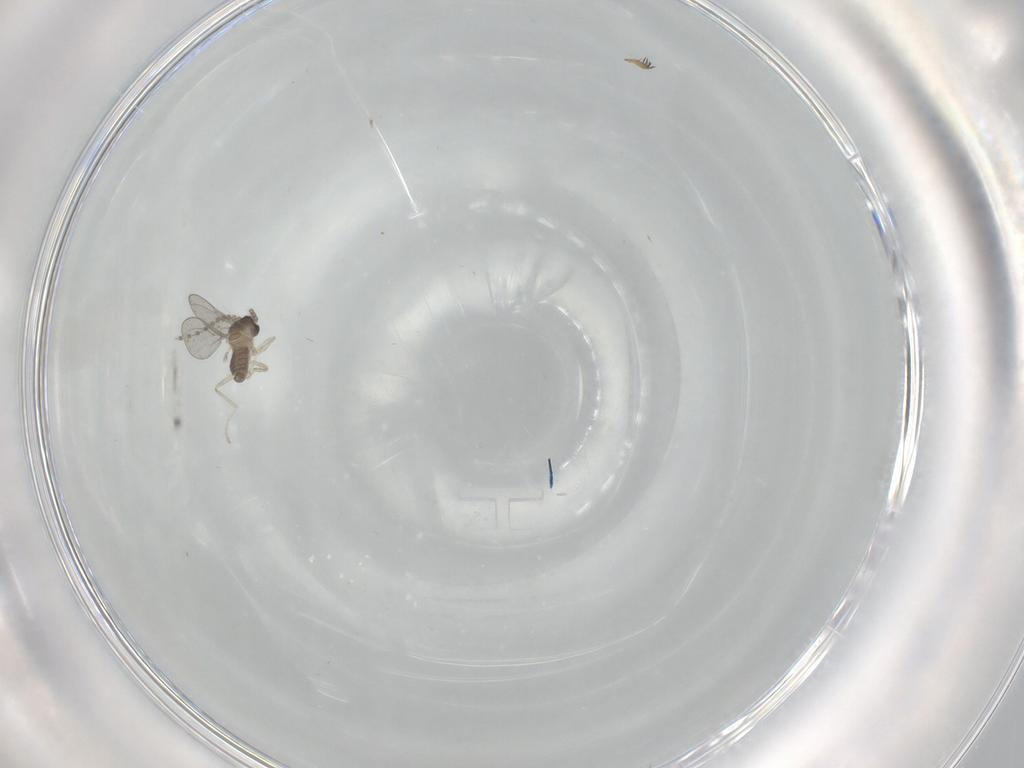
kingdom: Animalia
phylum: Arthropoda
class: Insecta
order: Diptera
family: Cecidomyiidae
